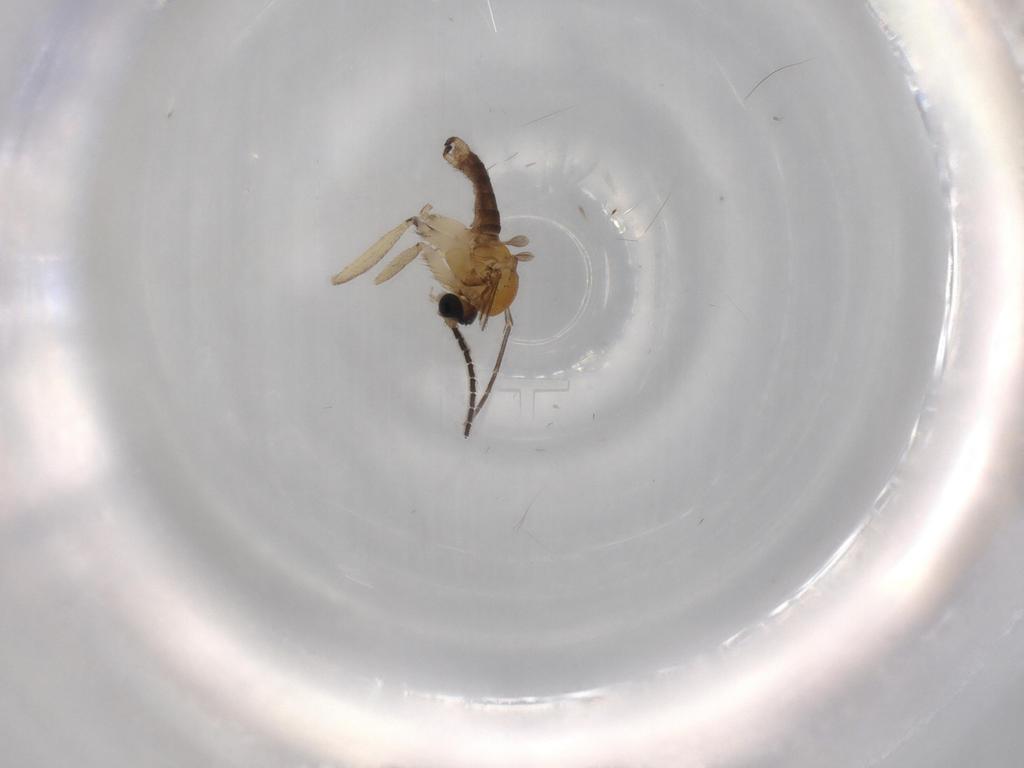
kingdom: Animalia
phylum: Arthropoda
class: Insecta
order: Diptera
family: Sciaridae
